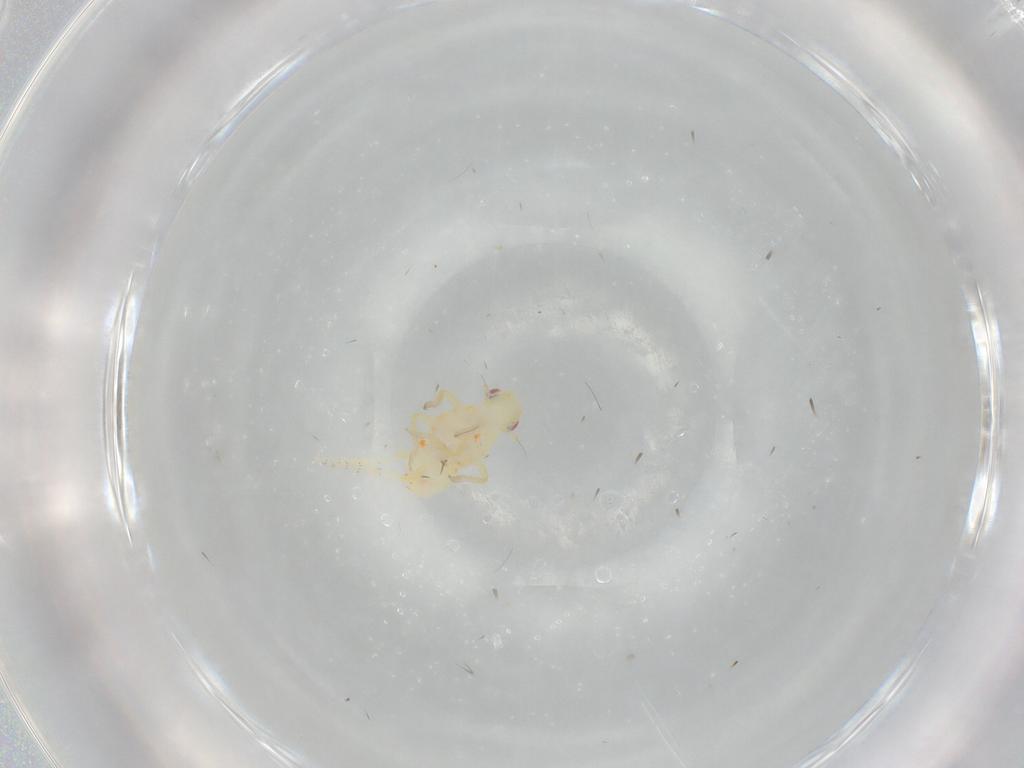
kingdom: Animalia
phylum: Arthropoda
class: Insecta
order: Hemiptera
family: Tropiduchidae
